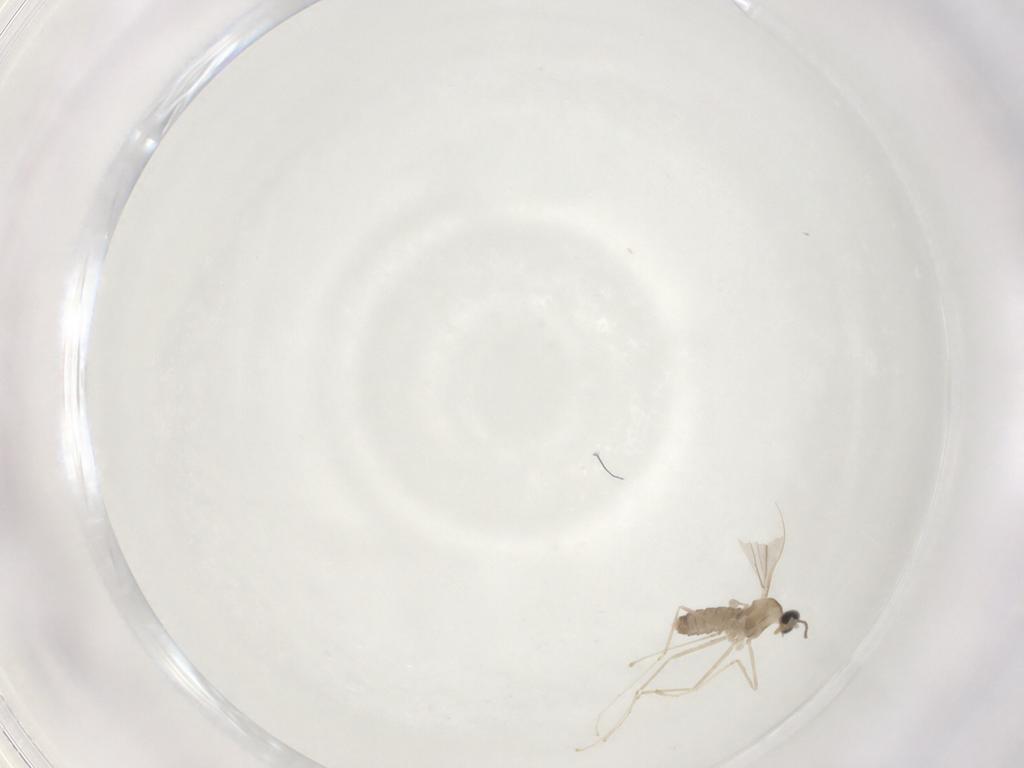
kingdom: Animalia
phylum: Arthropoda
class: Insecta
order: Diptera
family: Cecidomyiidae
